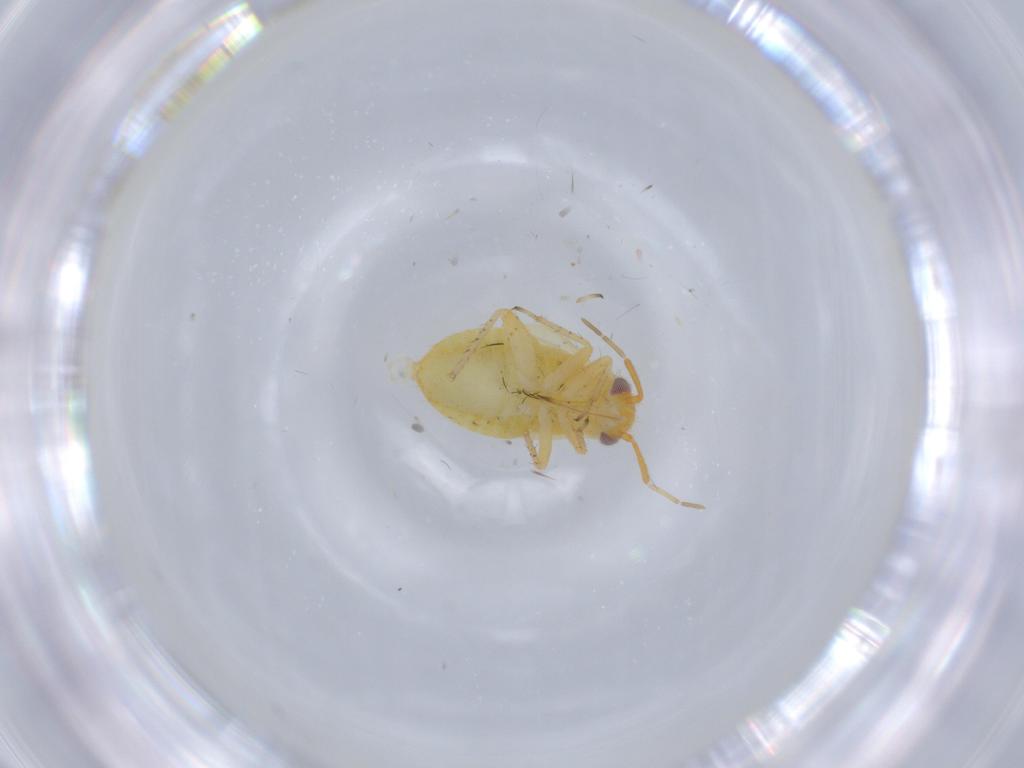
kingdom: Animalia
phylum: Arthropoda
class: Insecta
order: Hemiptera
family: Miridae
